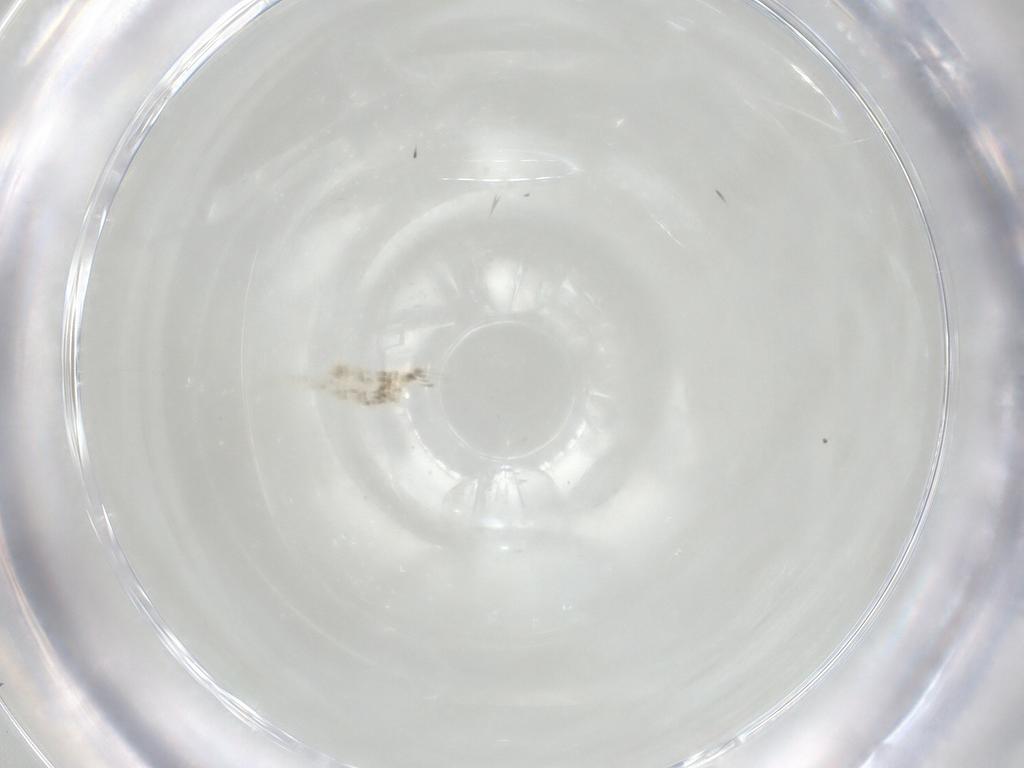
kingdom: Animalia
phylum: Arthropoda
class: Insecta
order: Lepidoptera
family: Erebidae
